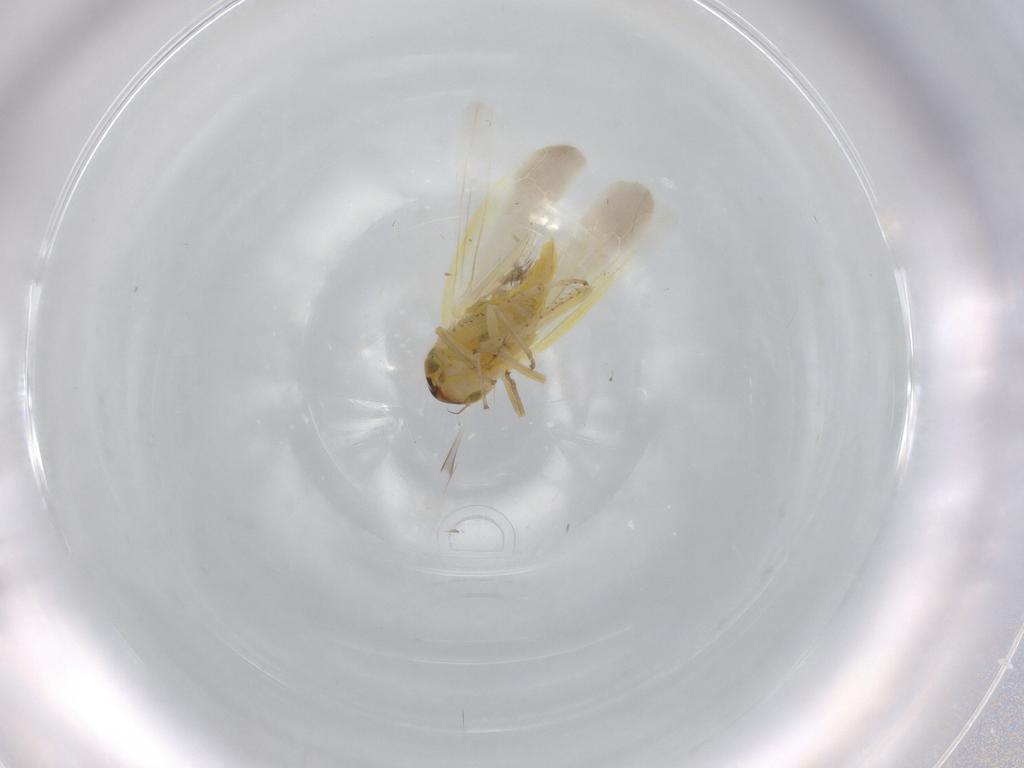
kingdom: Animalia
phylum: Arthropoda
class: Insecta
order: Hemiptera
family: Cicadellidae
